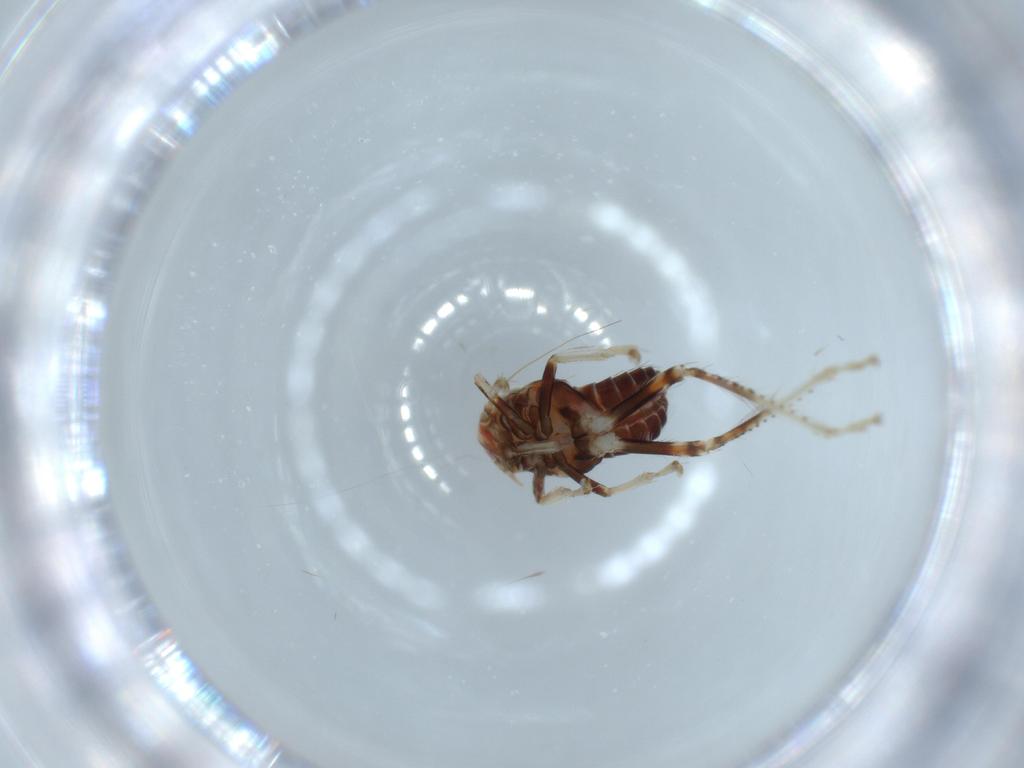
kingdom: Animalia
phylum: Arthropoda
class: Insecta
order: Hemiptera
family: Cicadellidae
